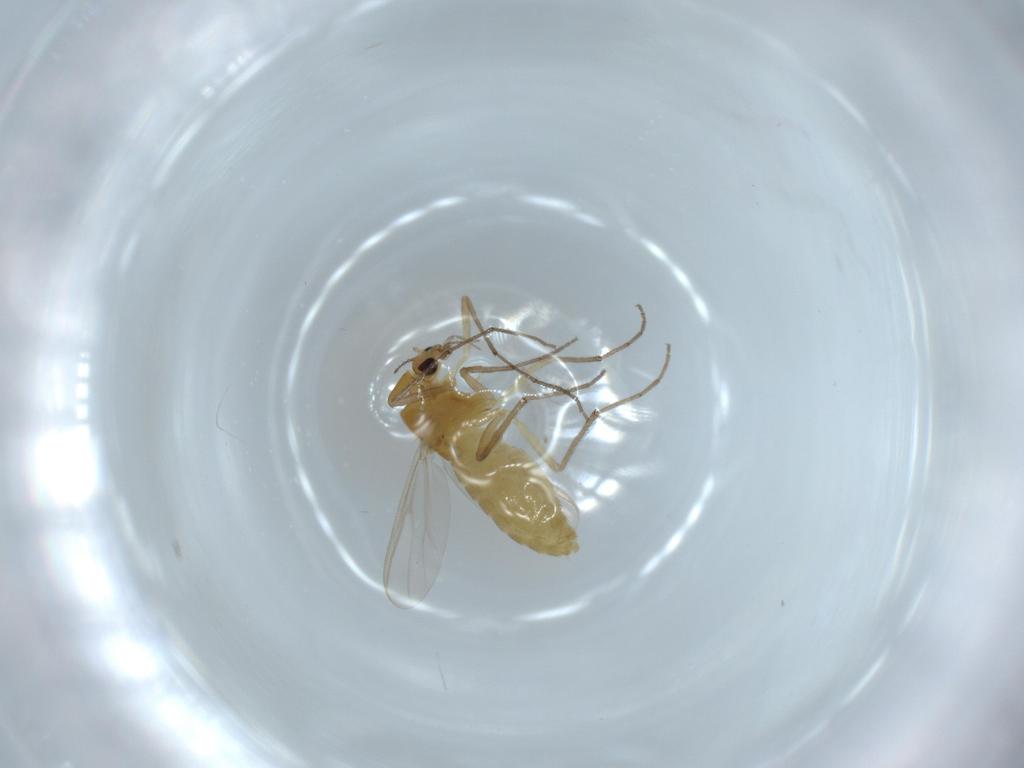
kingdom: Animalia
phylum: Arthropoda
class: Insecta
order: Diptera
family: Chironomidae
